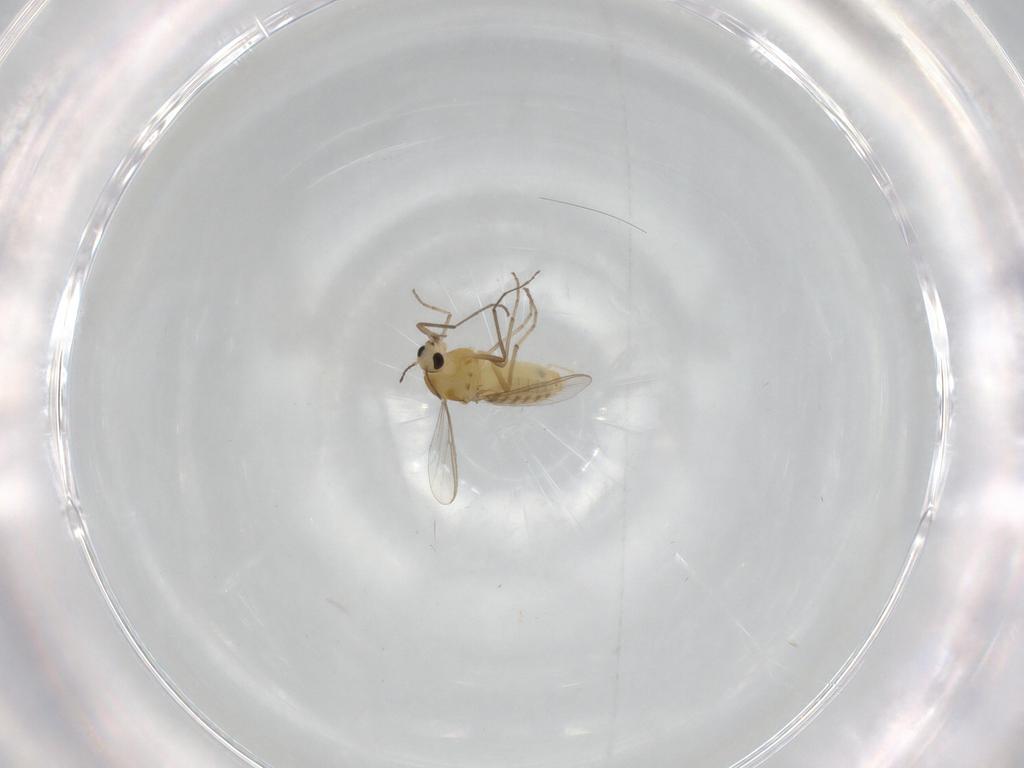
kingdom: Animalia
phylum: Arthropoda
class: Insecta
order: Diptera
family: Chironomidae
